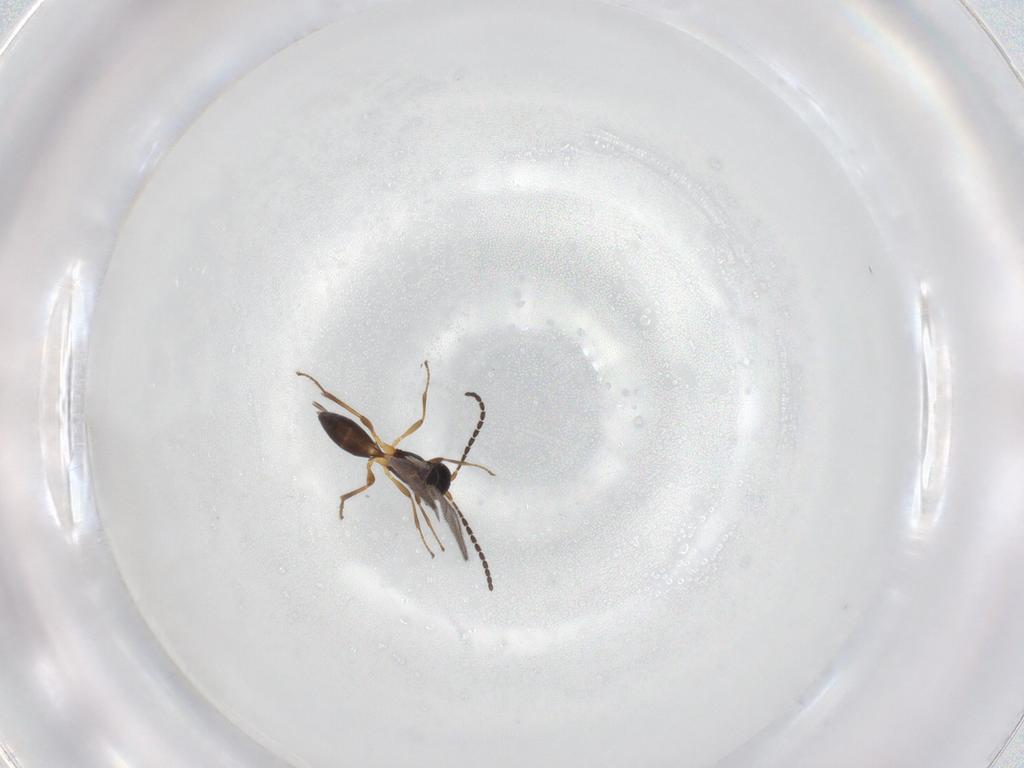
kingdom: Animalia
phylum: Arthropoda
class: Insecta
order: Hymenoptera
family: Braconidae
